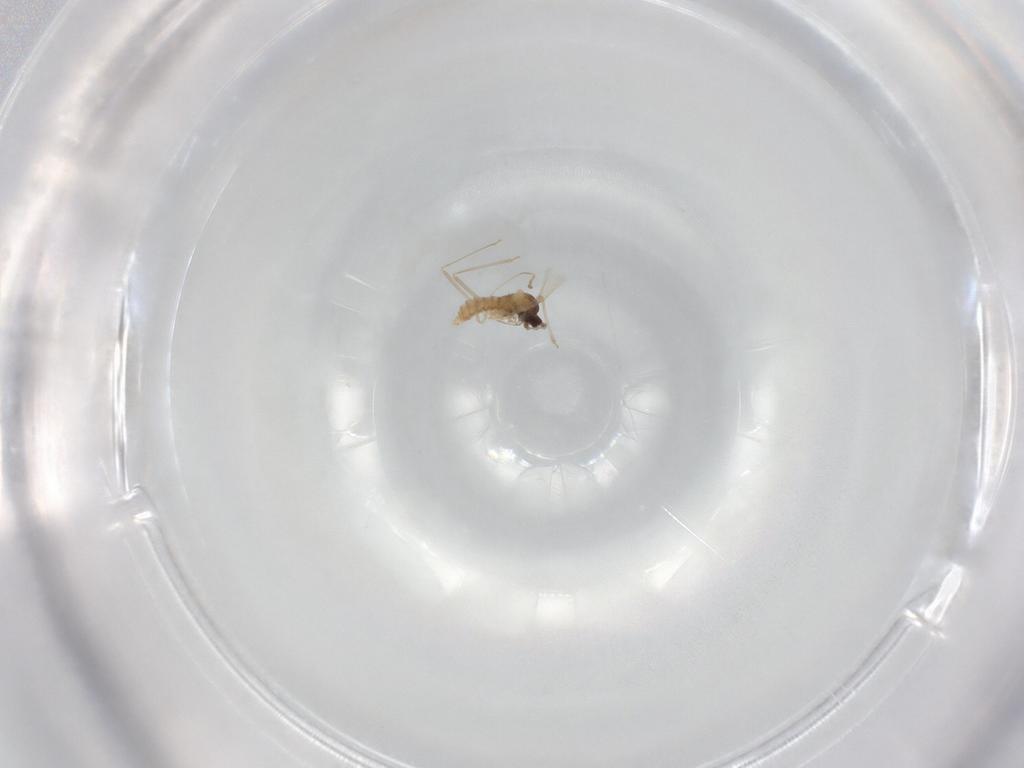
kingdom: Animalia
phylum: Arthropoda
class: Insecta
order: Diptera
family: Cecidomyiidae
